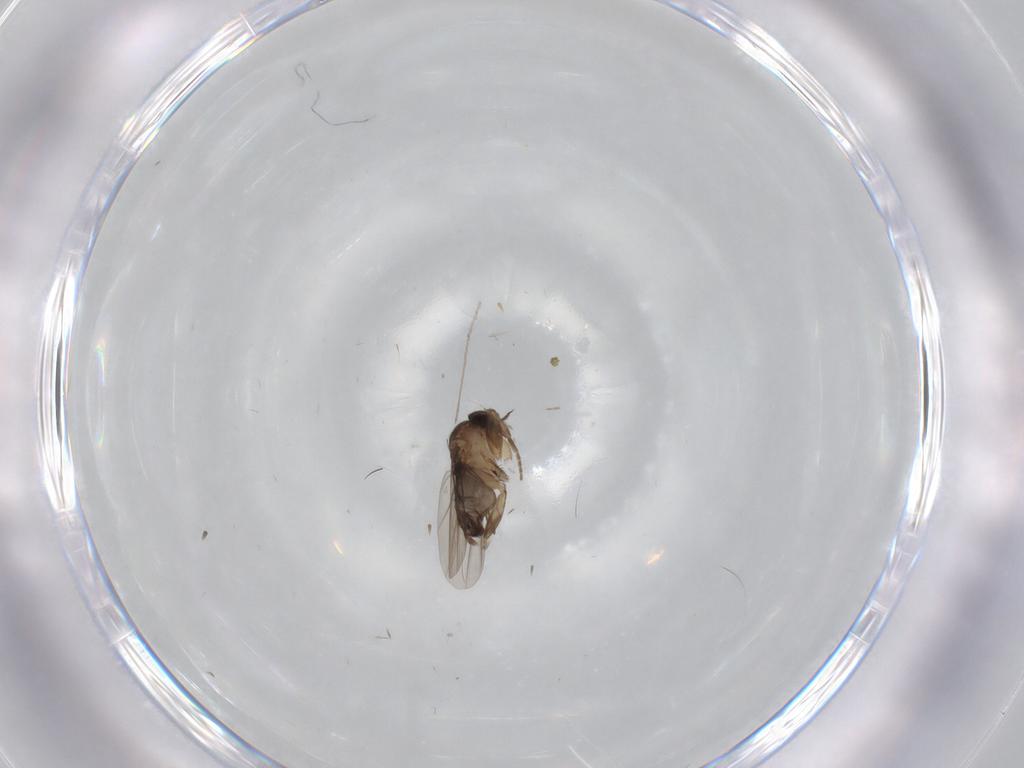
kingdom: Animalia
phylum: Arthropoda
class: Insecta
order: Diptera
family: Phoridae
